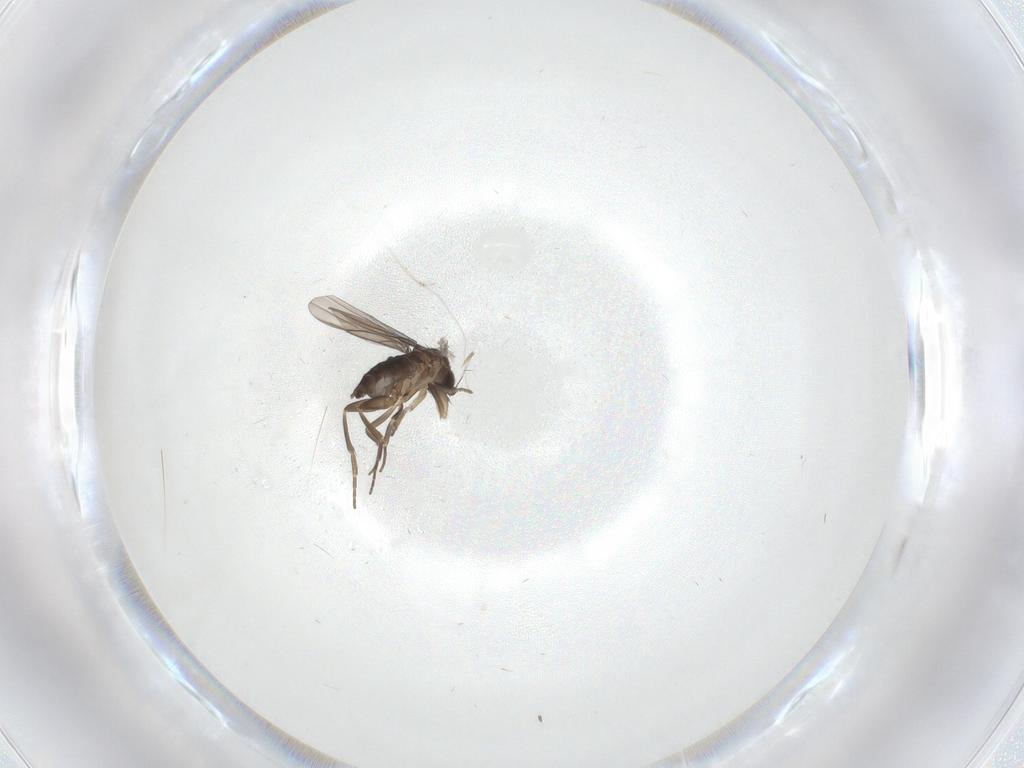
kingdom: Animalia
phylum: Arthropoda
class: Insecta
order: Diptera
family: Phoridae
